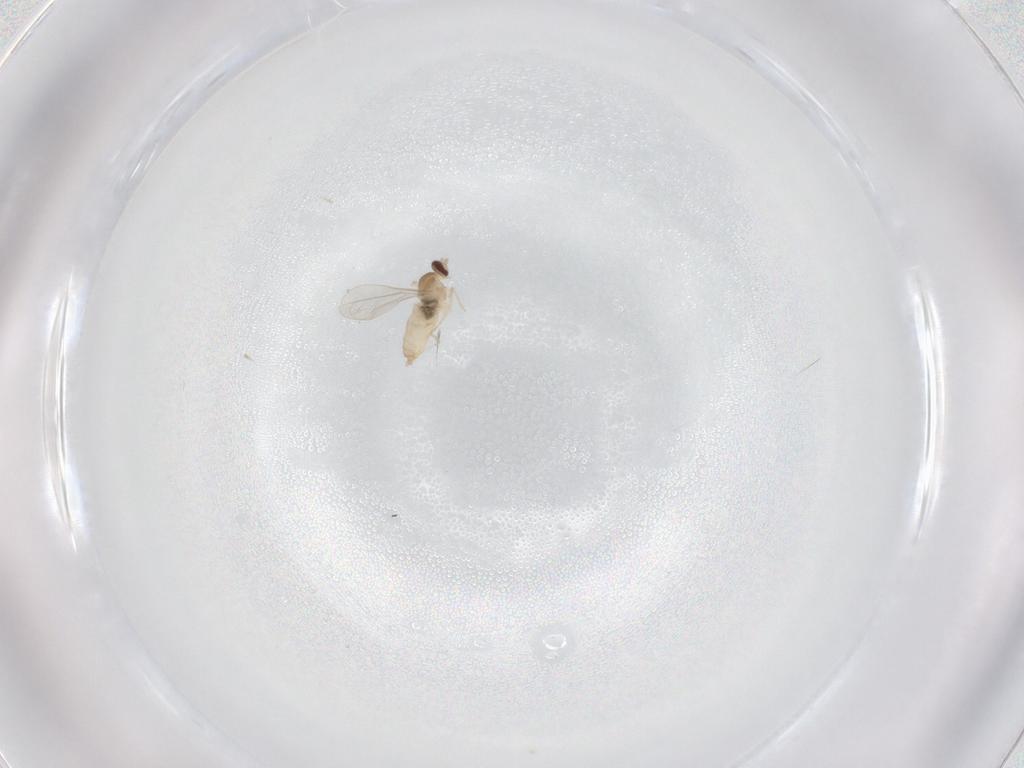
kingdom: Animalia
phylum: Arthropoda
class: Insecta
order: Diptera
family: Cecidomyiidae
